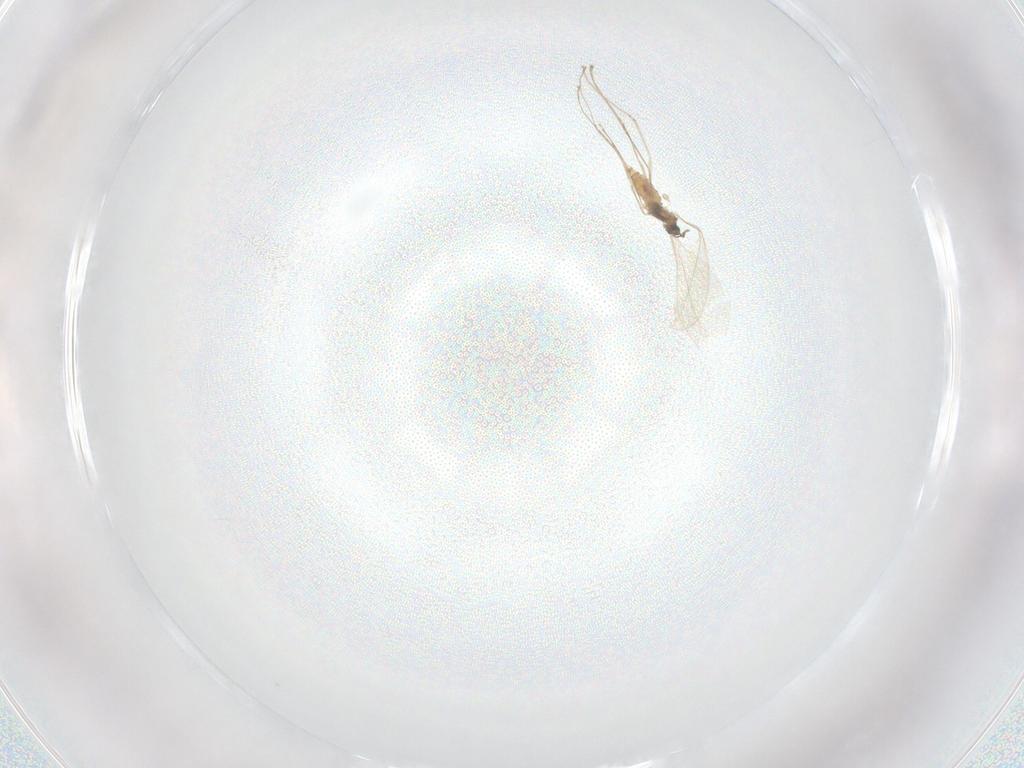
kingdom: Animalia
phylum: Arthropoda
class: Insecta
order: Diptera
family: Cecidomyiidae
